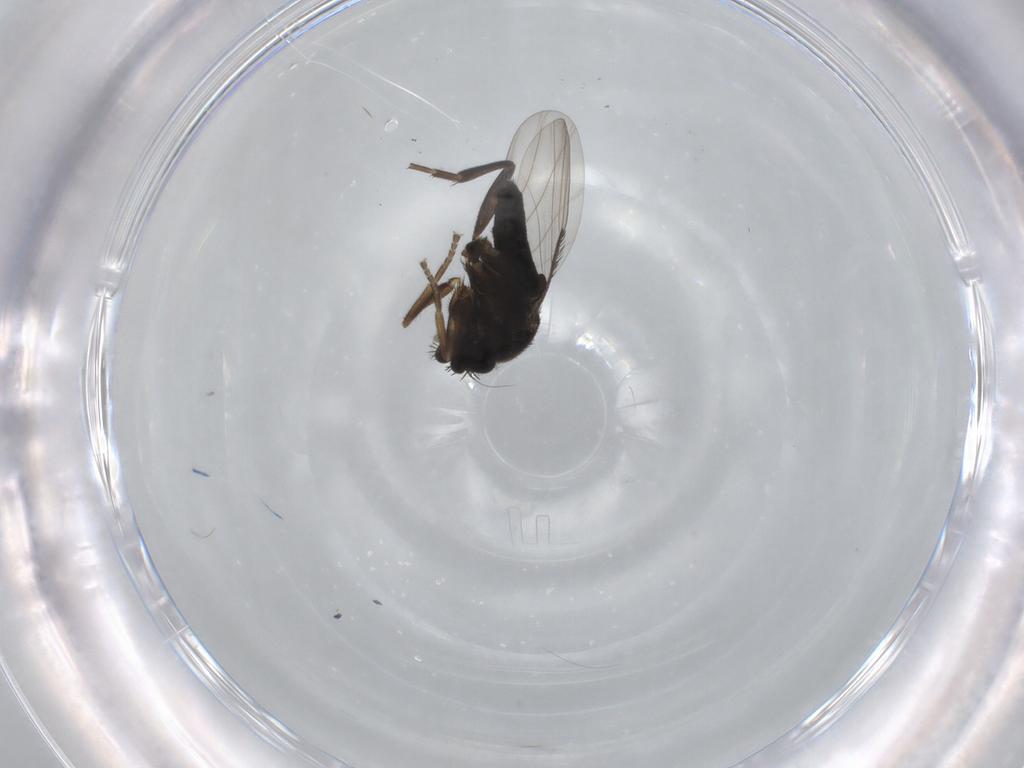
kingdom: Animalia
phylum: Arthropoda
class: Insecta
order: Diptera
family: Phoridae
